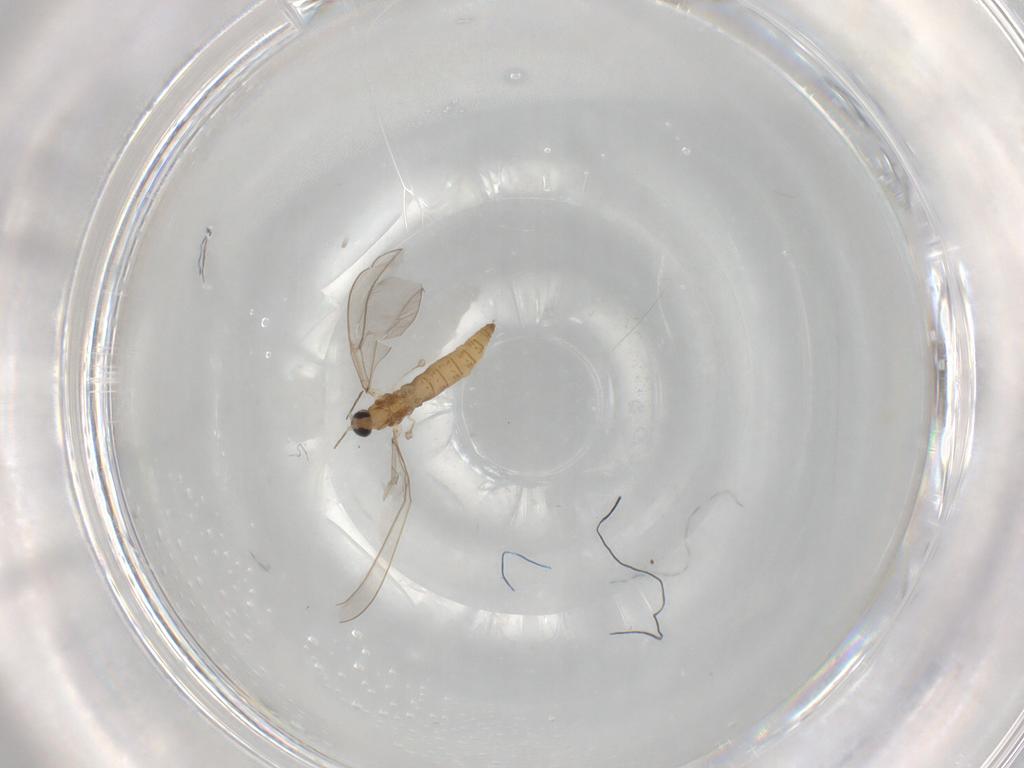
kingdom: Animalia
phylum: Arthropoda
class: Insecta
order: Diptera
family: Cecidomyiidae
